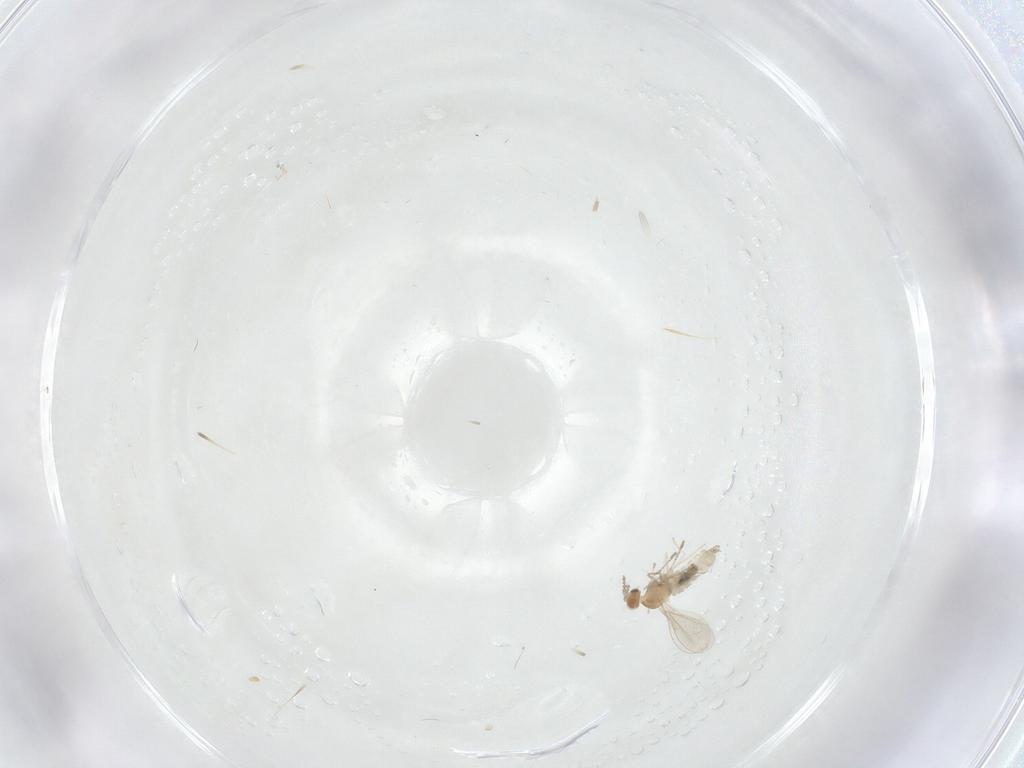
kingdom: Animalia
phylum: Arthropoda
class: Insecta
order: Diptera
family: Cecidomyiidae
